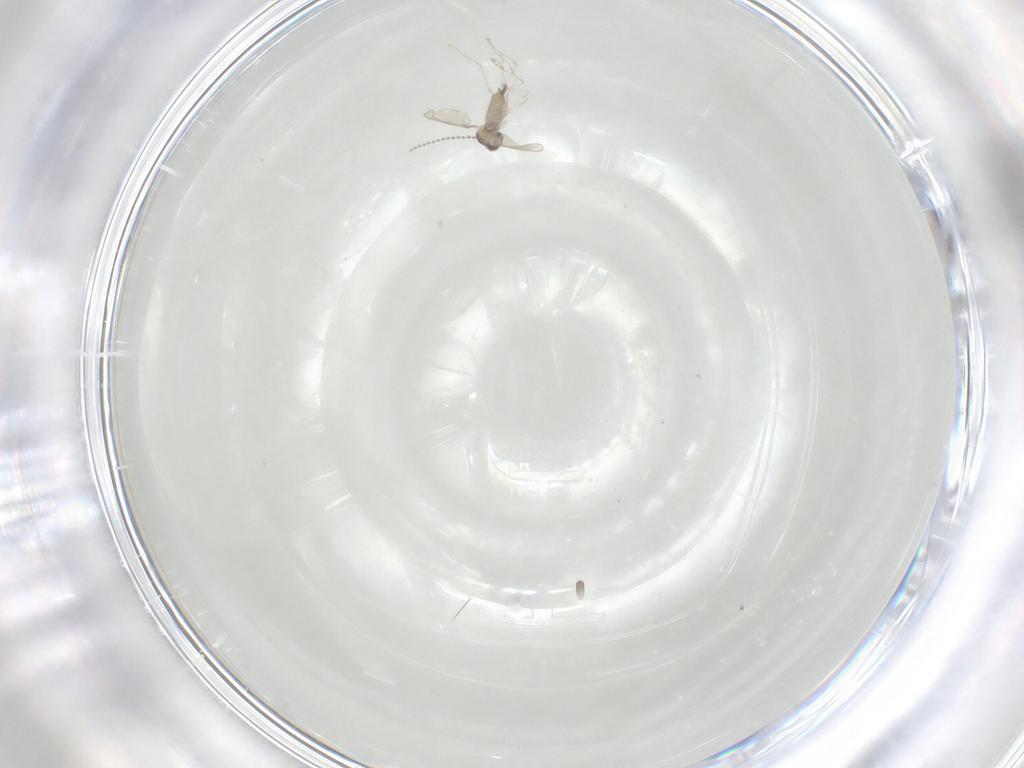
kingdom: Animalia
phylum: Arthropoda
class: Insecta
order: Diptera
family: Cecidomyiidae
